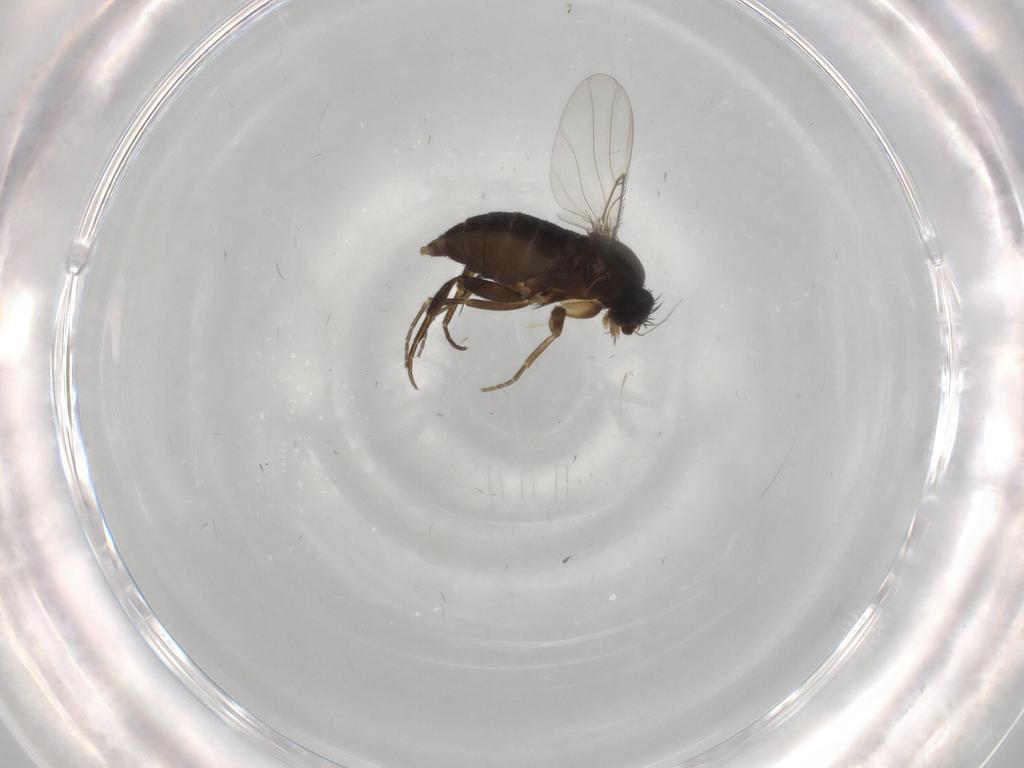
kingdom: Animalia
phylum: Arthropoda
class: Insecta
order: Diptera
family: Phoridae
